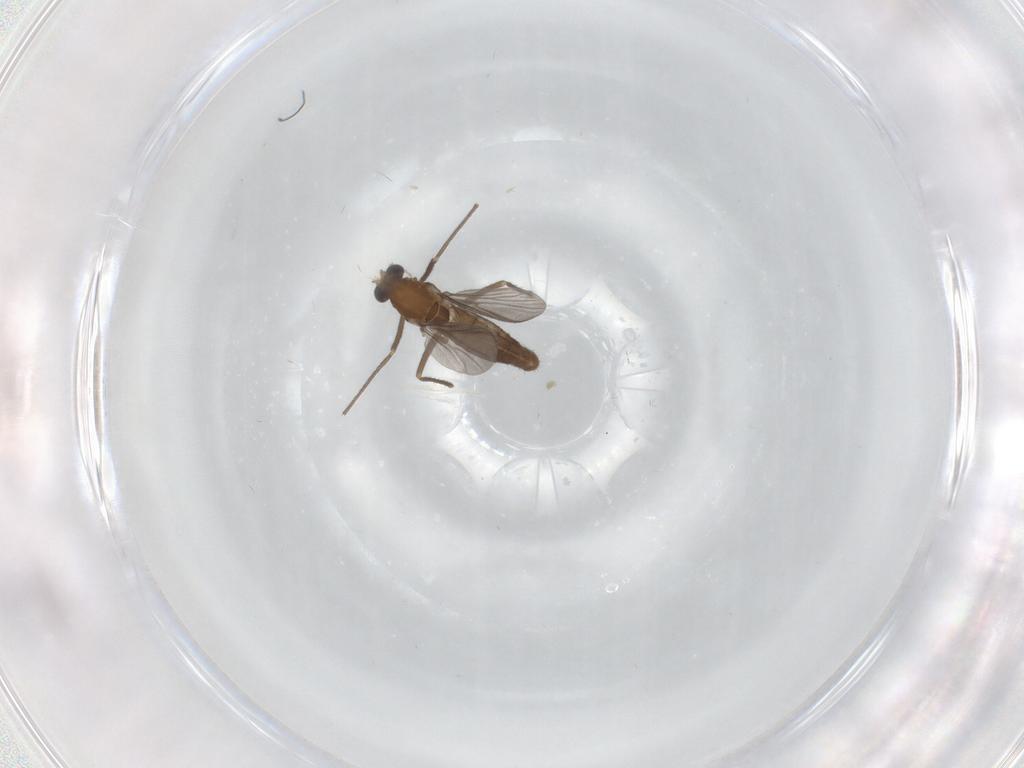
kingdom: Animalia
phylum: Arthropoda
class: Insecta
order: Diptera
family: Chironomidae
